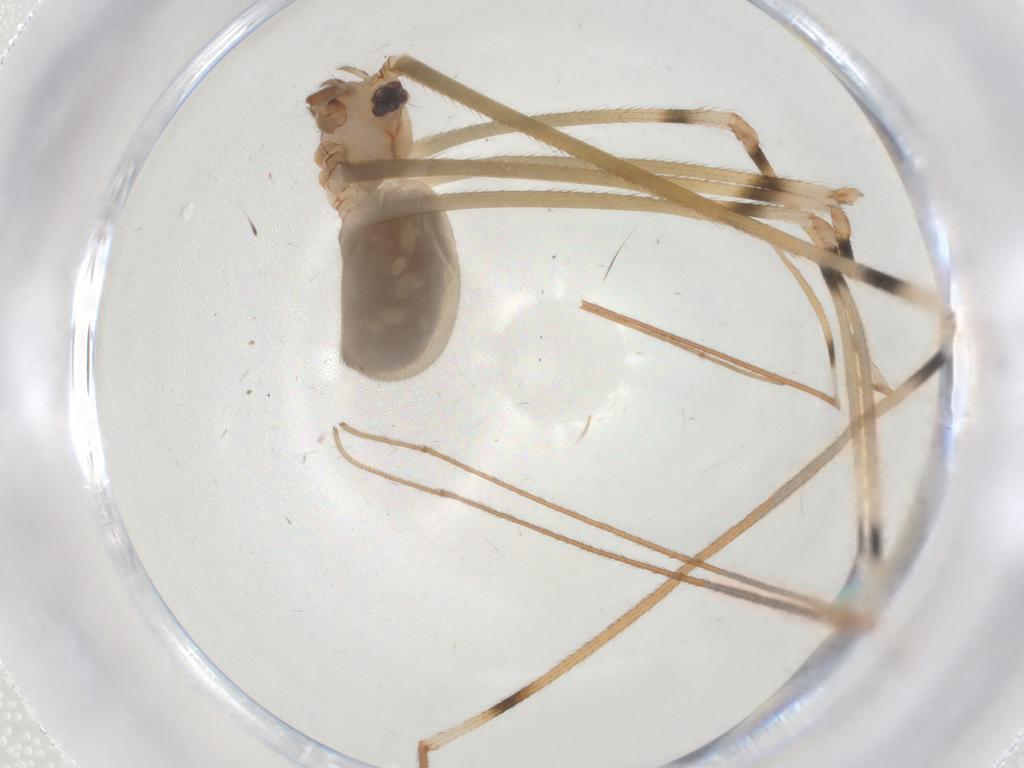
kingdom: Animalia
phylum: Arthropoda
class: Arachnida
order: Araneae
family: Pholcidae
